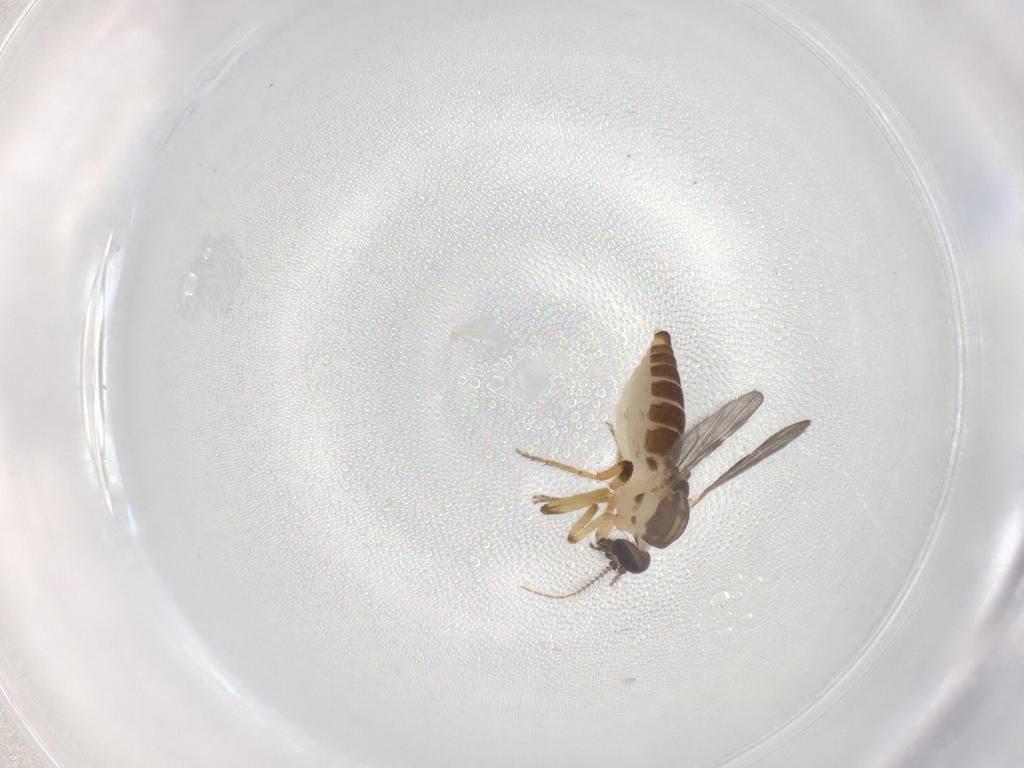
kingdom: Animalia
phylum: Arthropoda
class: Insecta
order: Diptera
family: Ceratopogonidae
